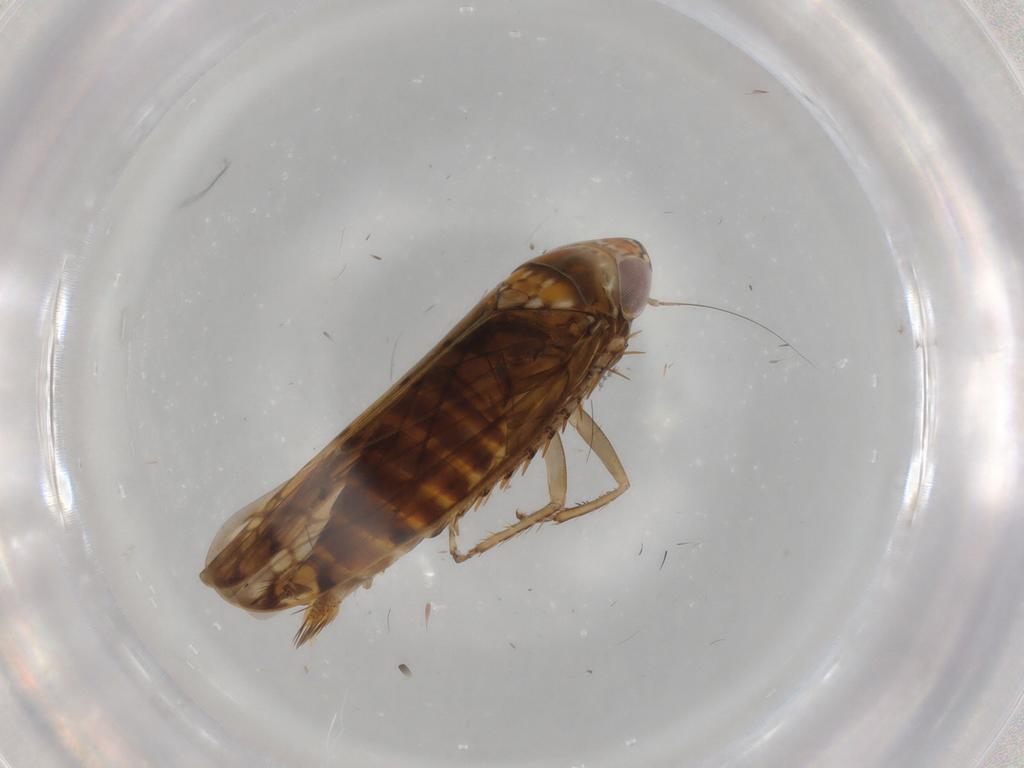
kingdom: Animalia
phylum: Arthropoda
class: Insecta
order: Hemiptera
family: Cicadellidae
